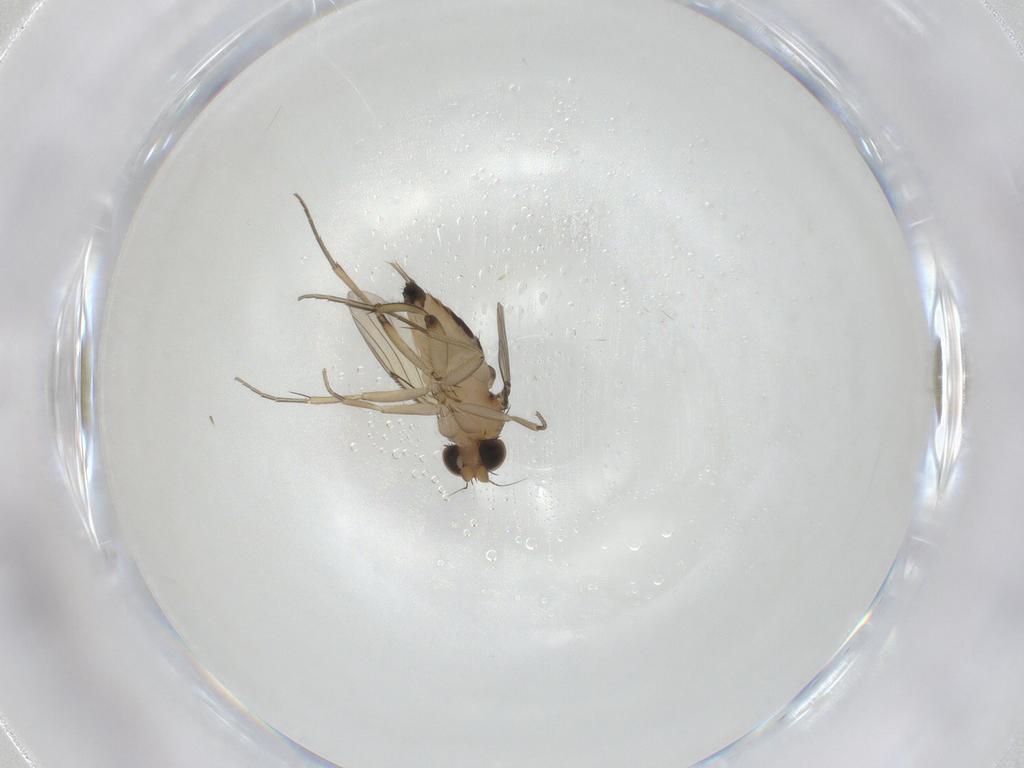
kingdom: Animalia
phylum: Arthropoda
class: Insecta
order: Diptera
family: Phoridae
